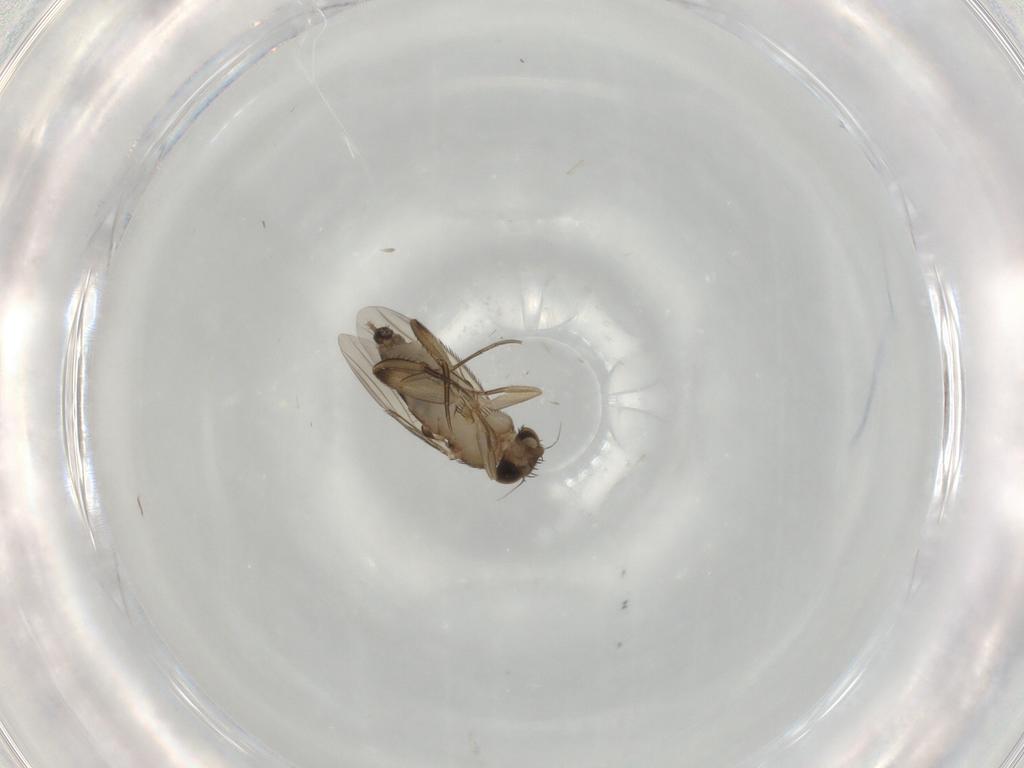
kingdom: Animalia
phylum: Arthropoda
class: Insecta
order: Diptera
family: Phoridae
